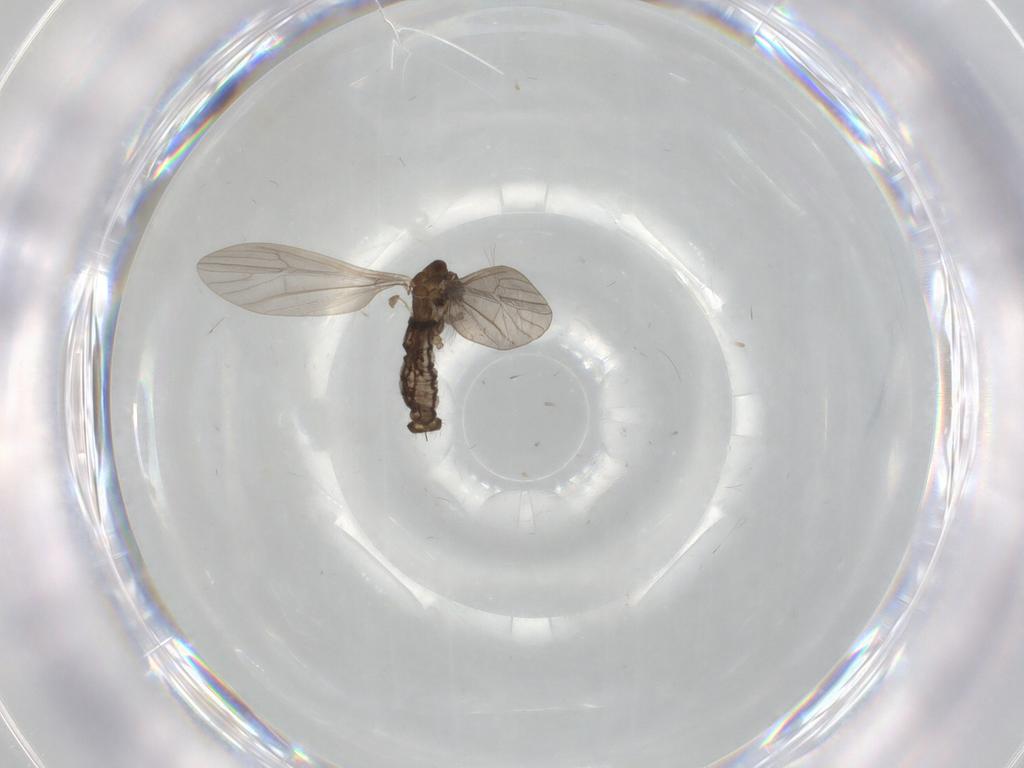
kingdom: Animalia
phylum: Arthropoda
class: Insecta
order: Diptera
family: Limoniidae
